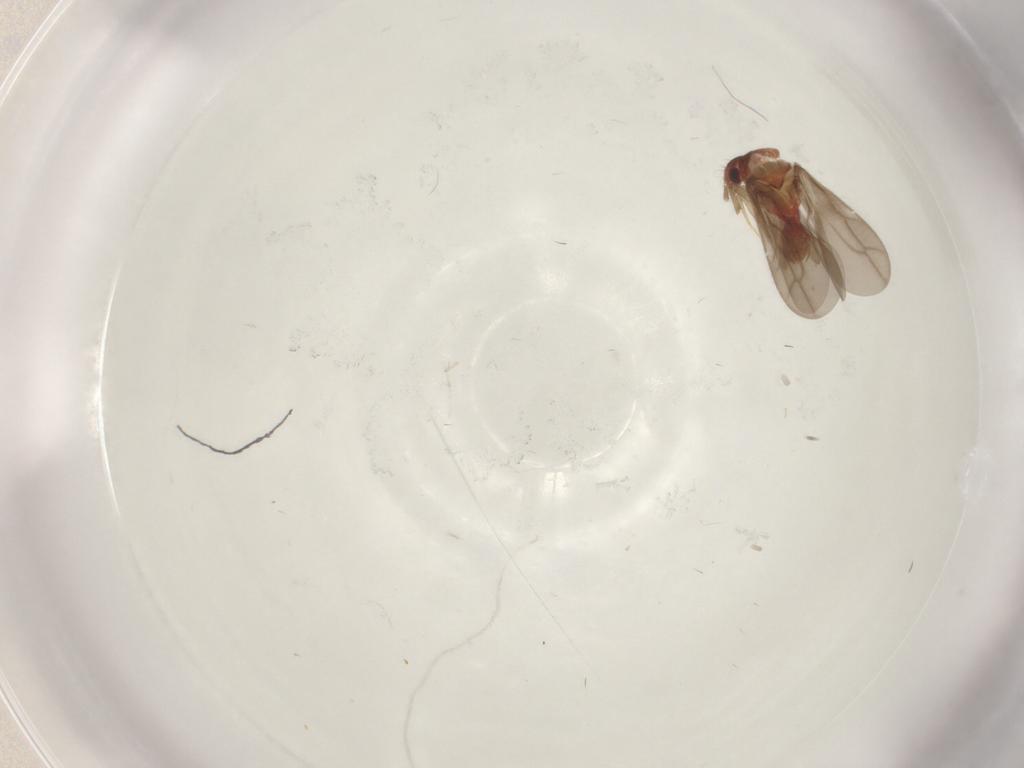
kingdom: Animalia
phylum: Arthropoda
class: Insecta
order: Hemiptera
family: Ceratocombidae
